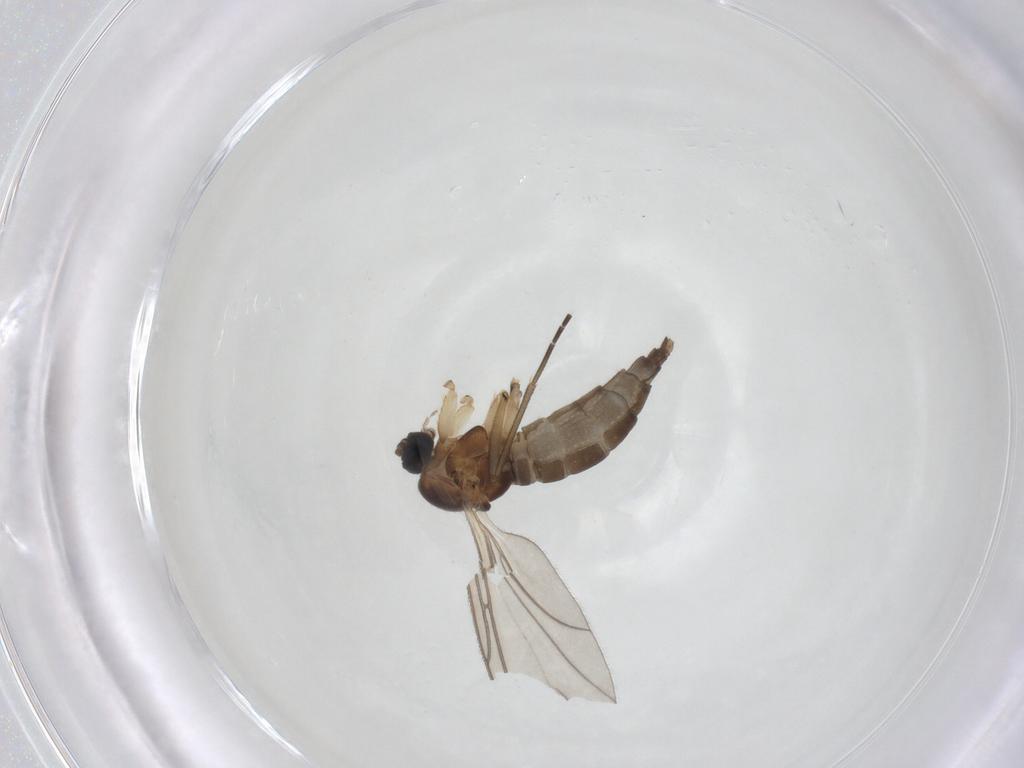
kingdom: Animalia
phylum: Arthropoda
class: Insecta
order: Diptera
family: Sciaridae
